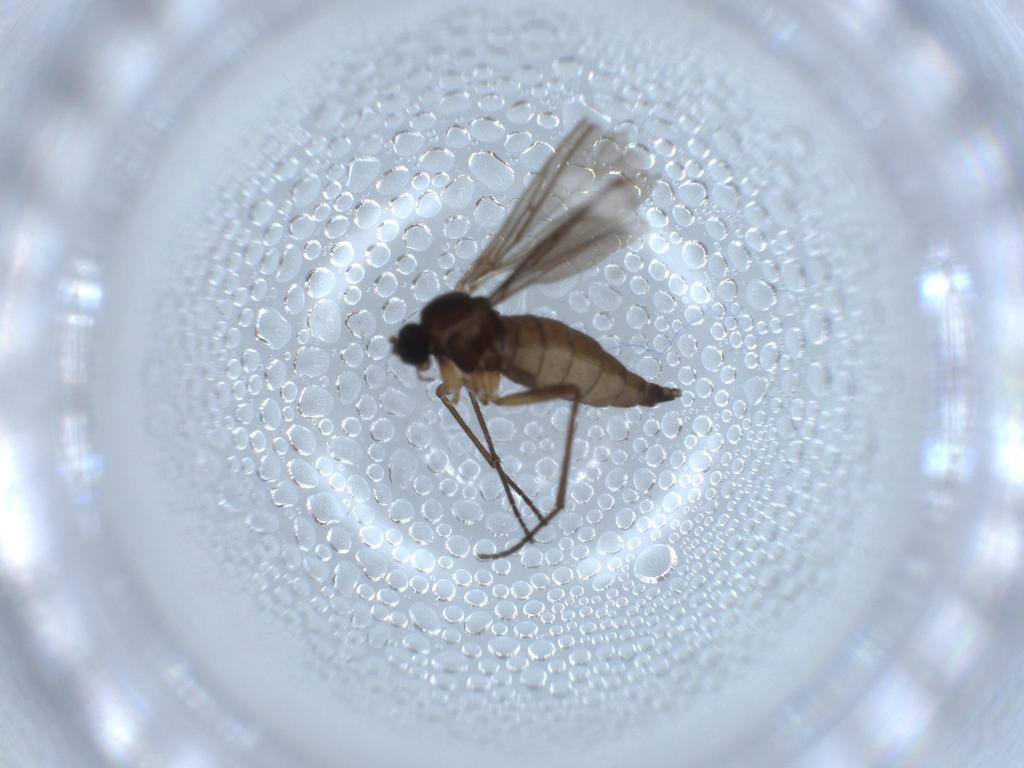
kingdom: Animalia
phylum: Arthropoda
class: Insecta
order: Diptera
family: Sciaridae
